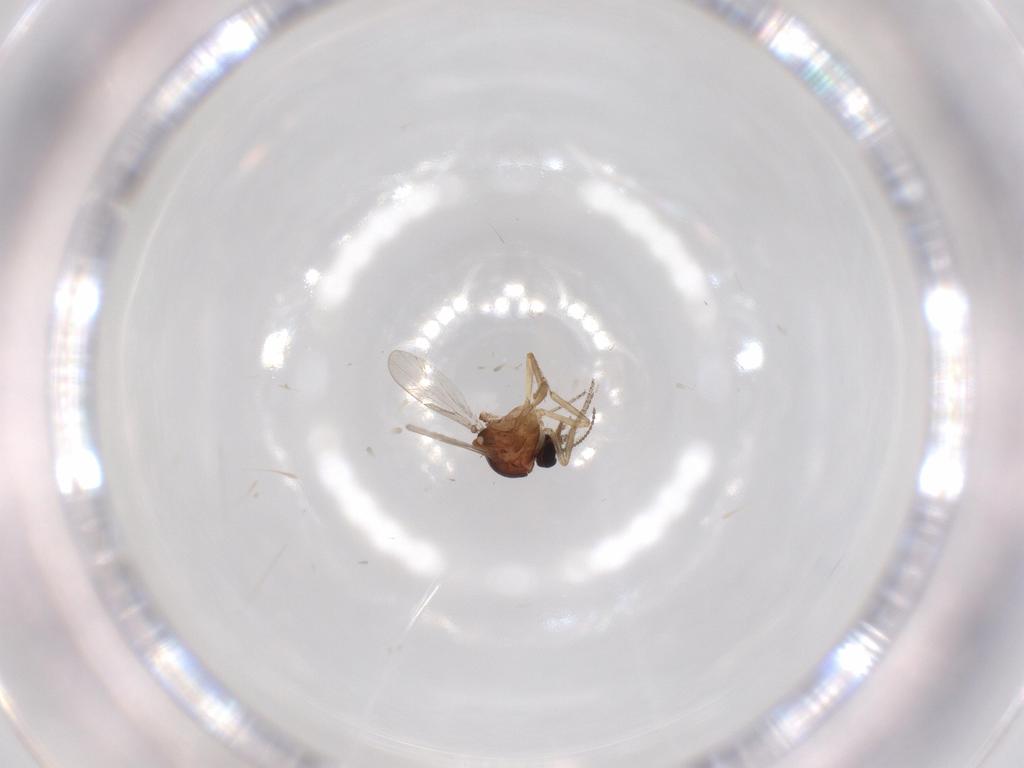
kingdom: Animalia
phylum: Arthropoda
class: Insecta
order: Diptera
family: Ceratopogonidae
